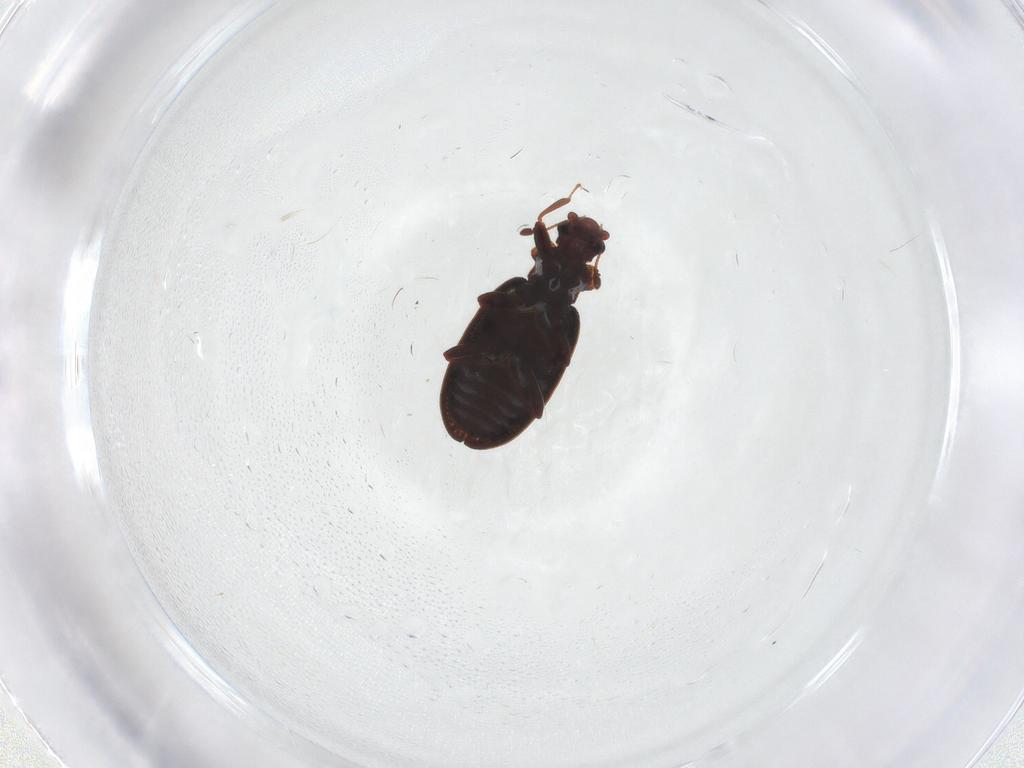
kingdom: Animalia
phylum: Arthropoda
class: Insecta
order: Coleoptera
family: Latridiidae
